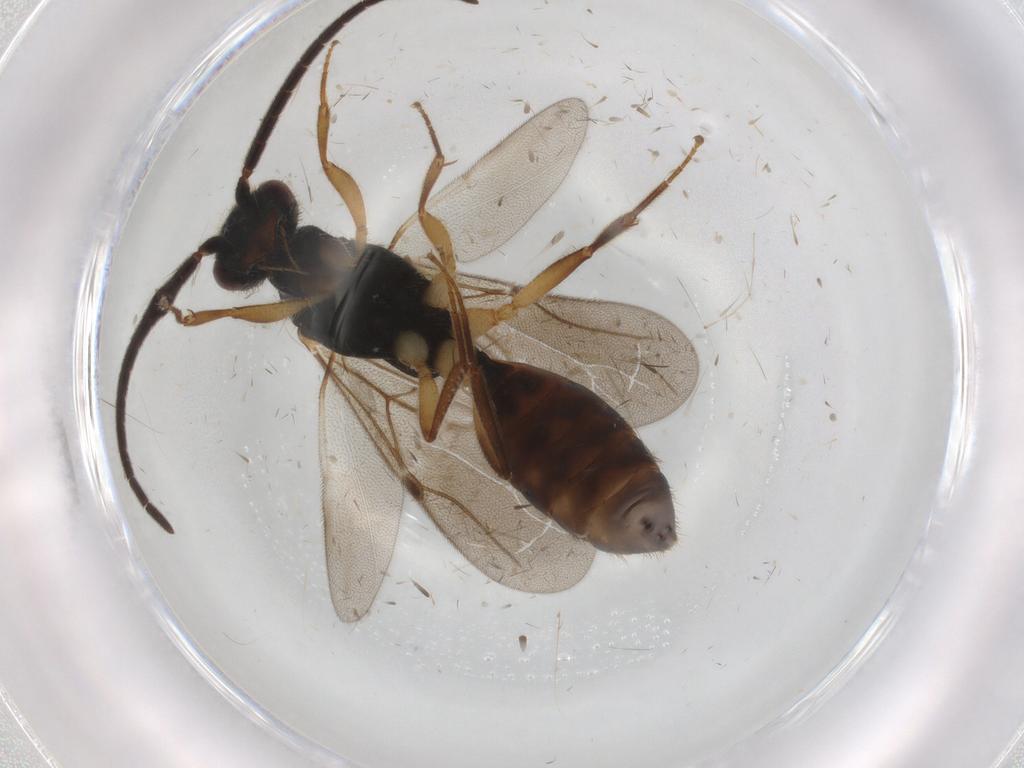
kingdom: Animalia
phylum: Arthropoda
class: Insecta
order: Hymenoptera
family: Bethylidae
